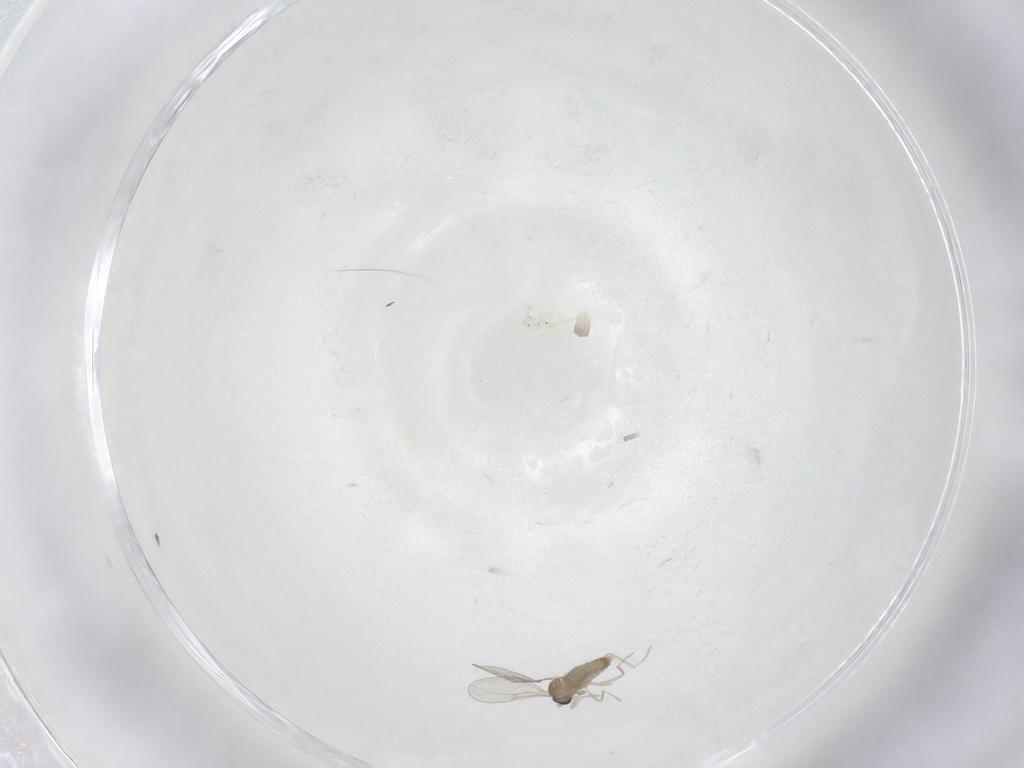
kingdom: Animalia
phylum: Arthropoda
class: Insecta
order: Diptera
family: Cecidomyiidae
